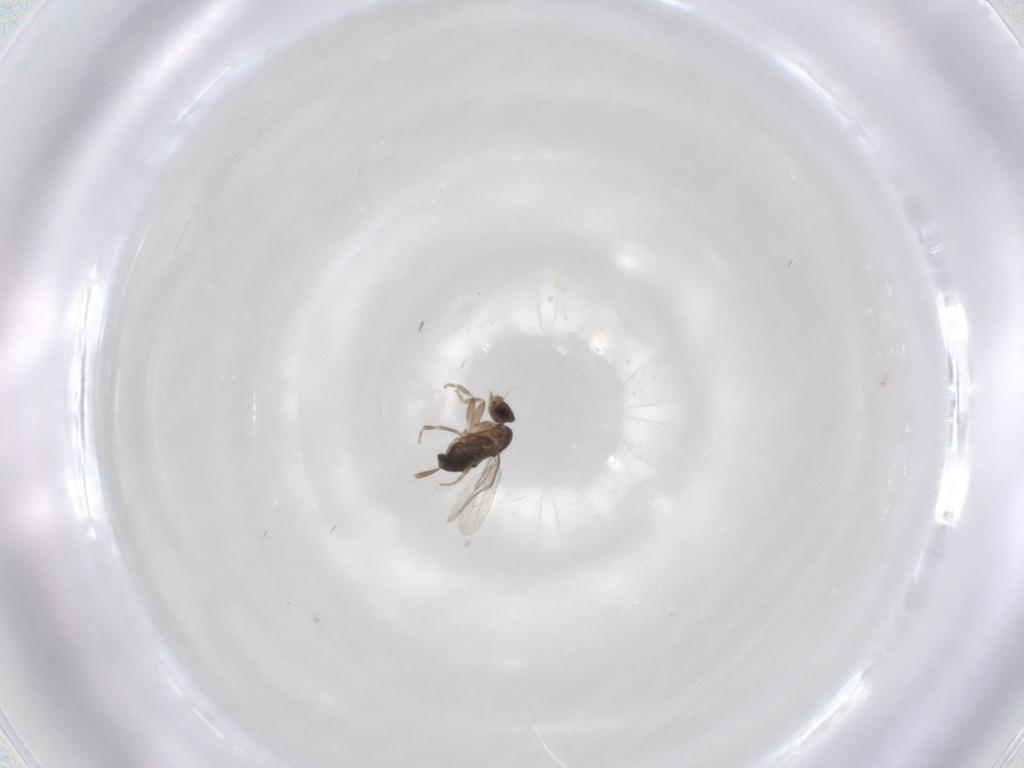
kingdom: Animalia
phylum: Arthropoda
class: Insecta
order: Diptera
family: Phoridae
